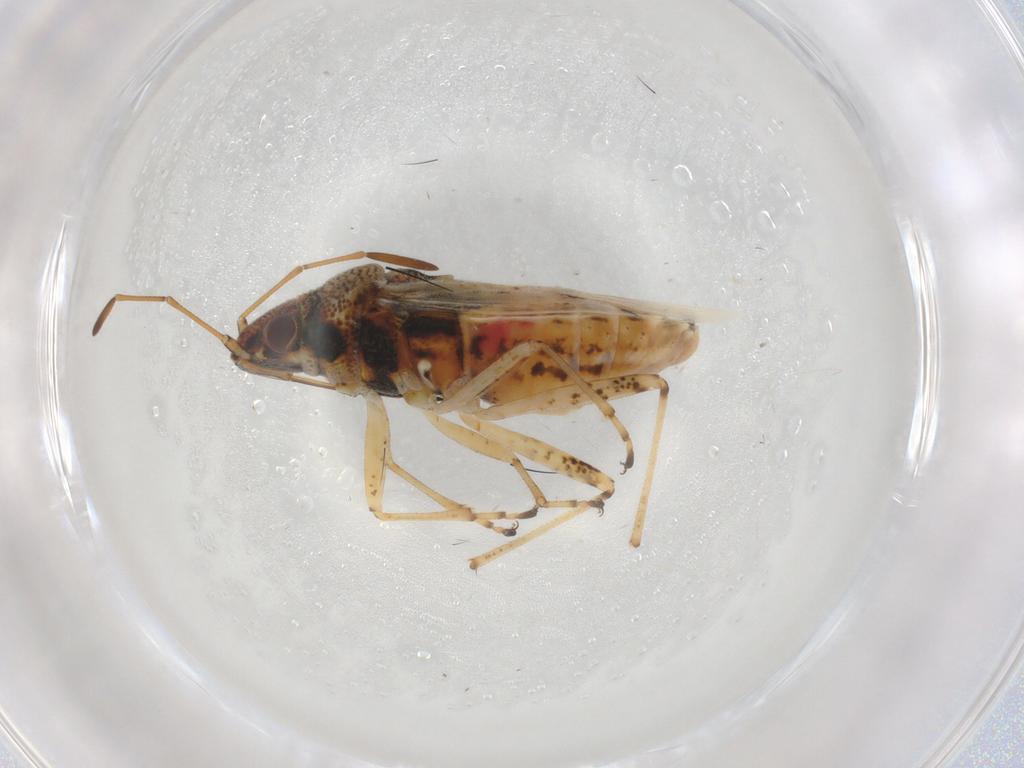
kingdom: Animalia
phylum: Arthropoda
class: Insecta
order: Hemiptera
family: Lygaeidae
